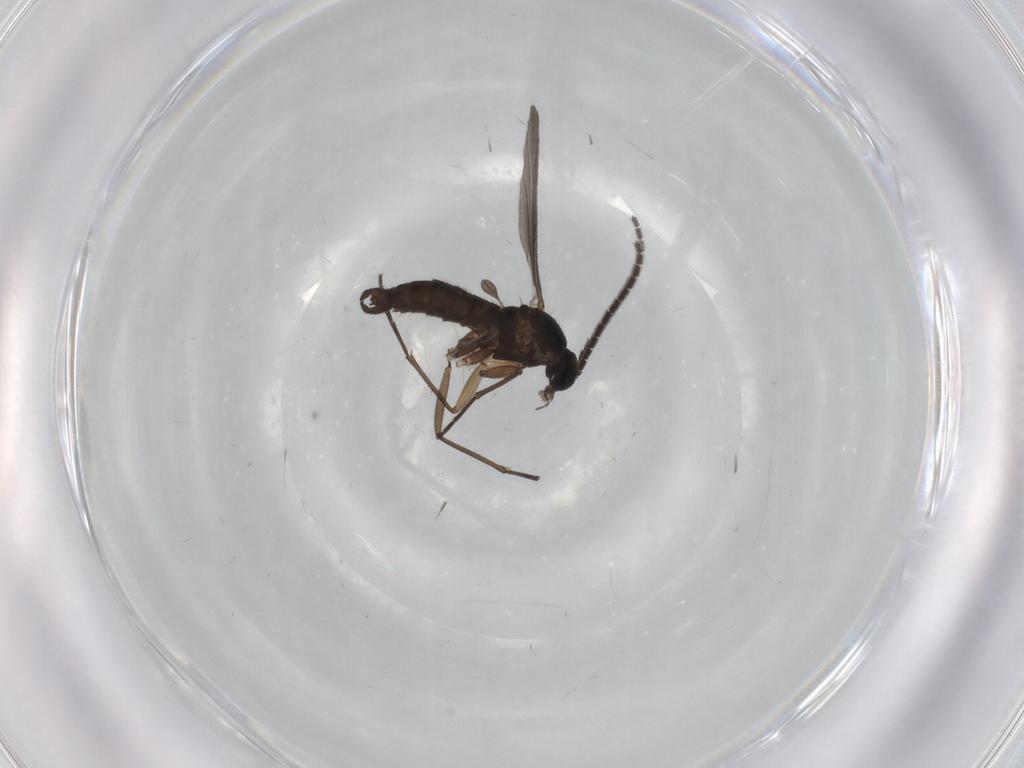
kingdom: Animalia
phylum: Arthropoda
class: Insecta
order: Diptera
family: Sciaridae
